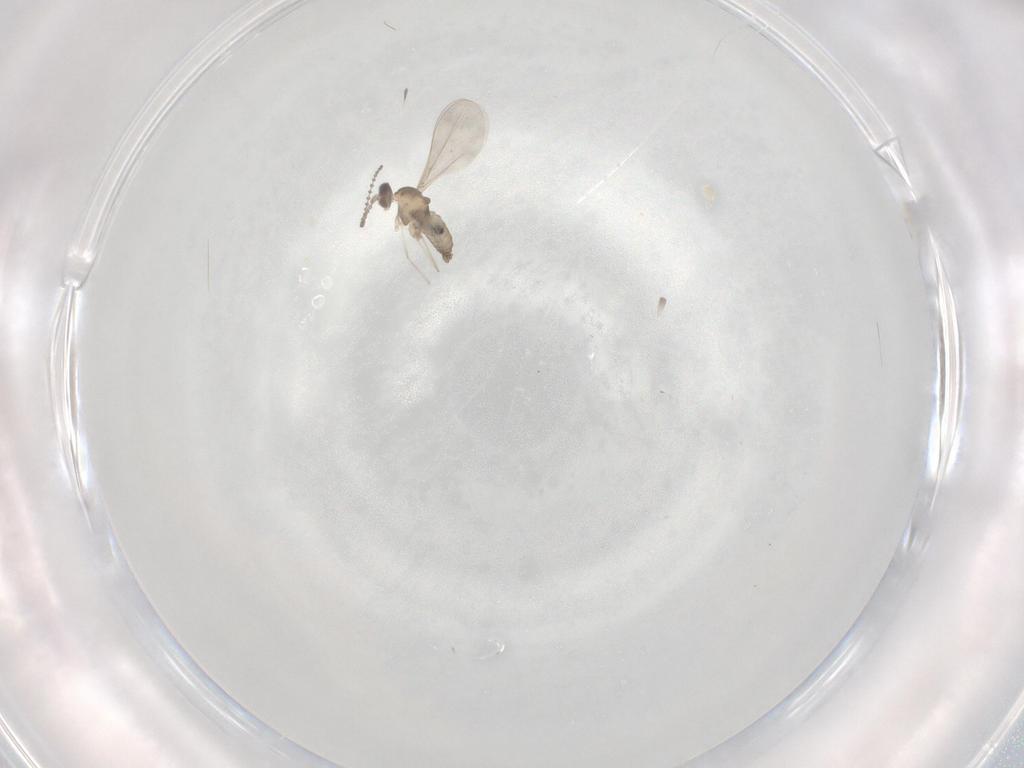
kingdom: Animalia
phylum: Arthropoda
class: Insecta
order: Diptera
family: Cecidomyiidae
